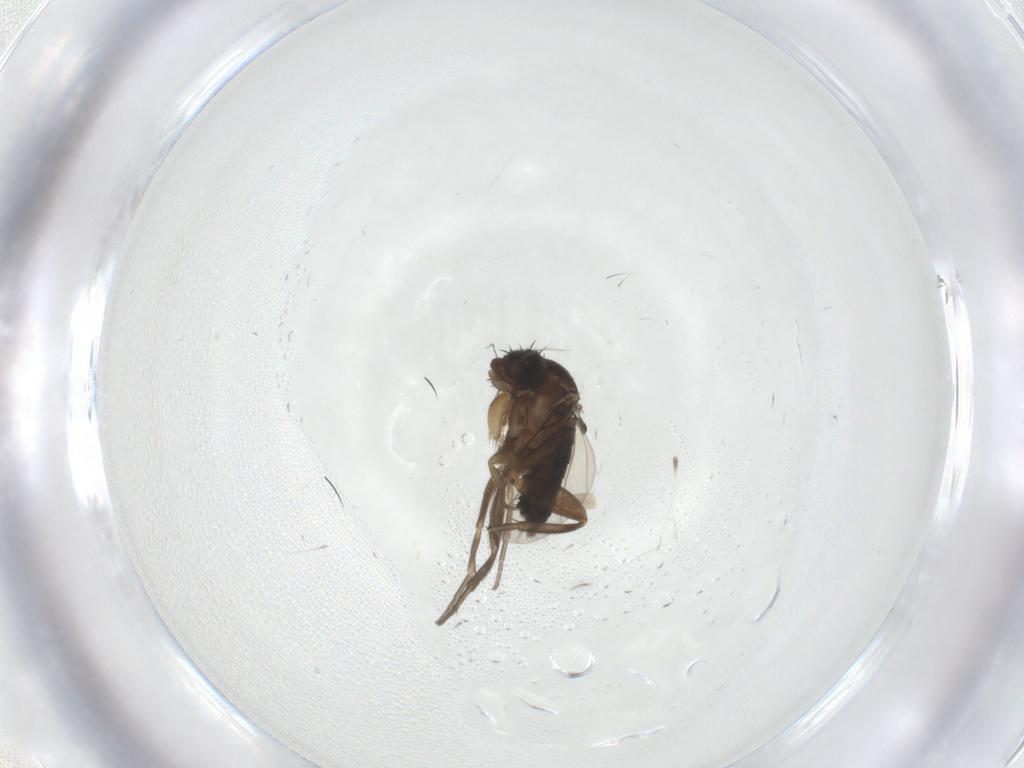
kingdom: Animalia
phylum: Arthropoda
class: Insecta
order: Diptera
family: Phoridae
